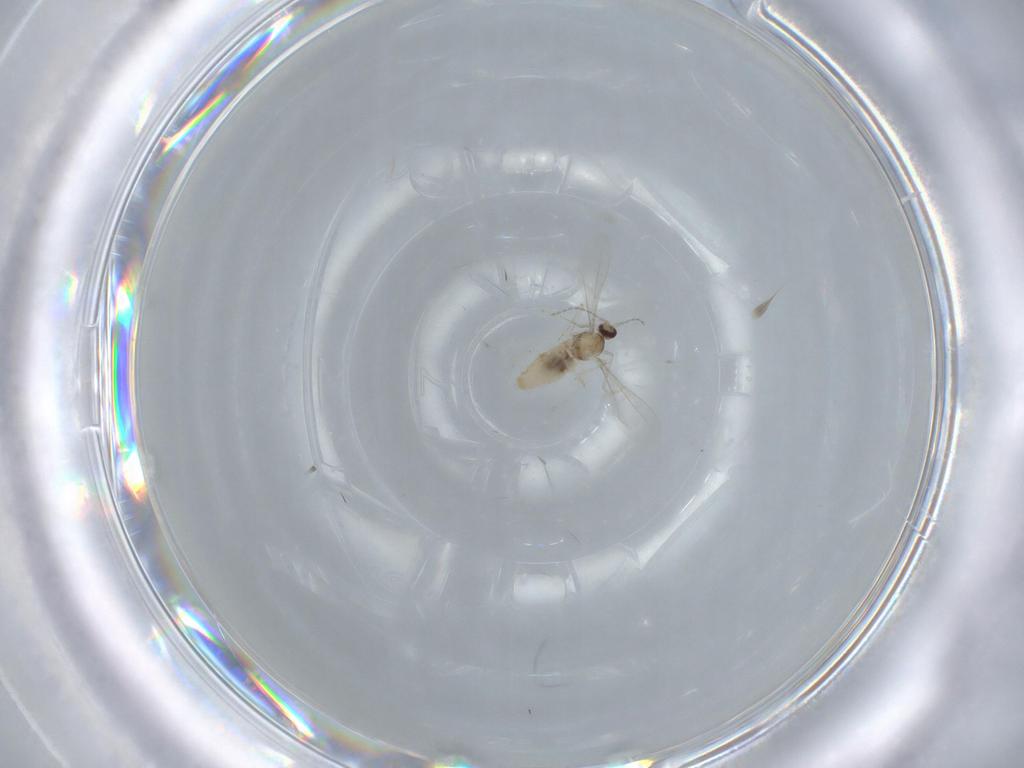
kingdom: Animalia
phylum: Arthropoda
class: Insecta
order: Diptera
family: Cecidomyiidae
